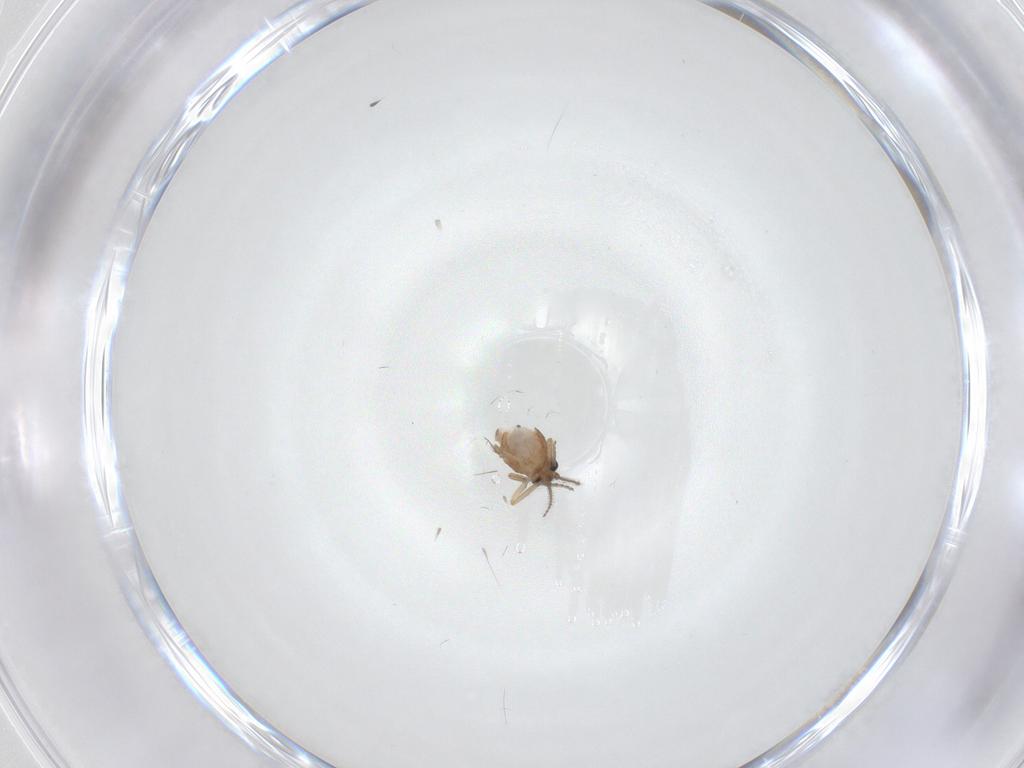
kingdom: Animalia
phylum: Arthropoda
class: Insecta
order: Diptera
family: Ceratopogonidae
